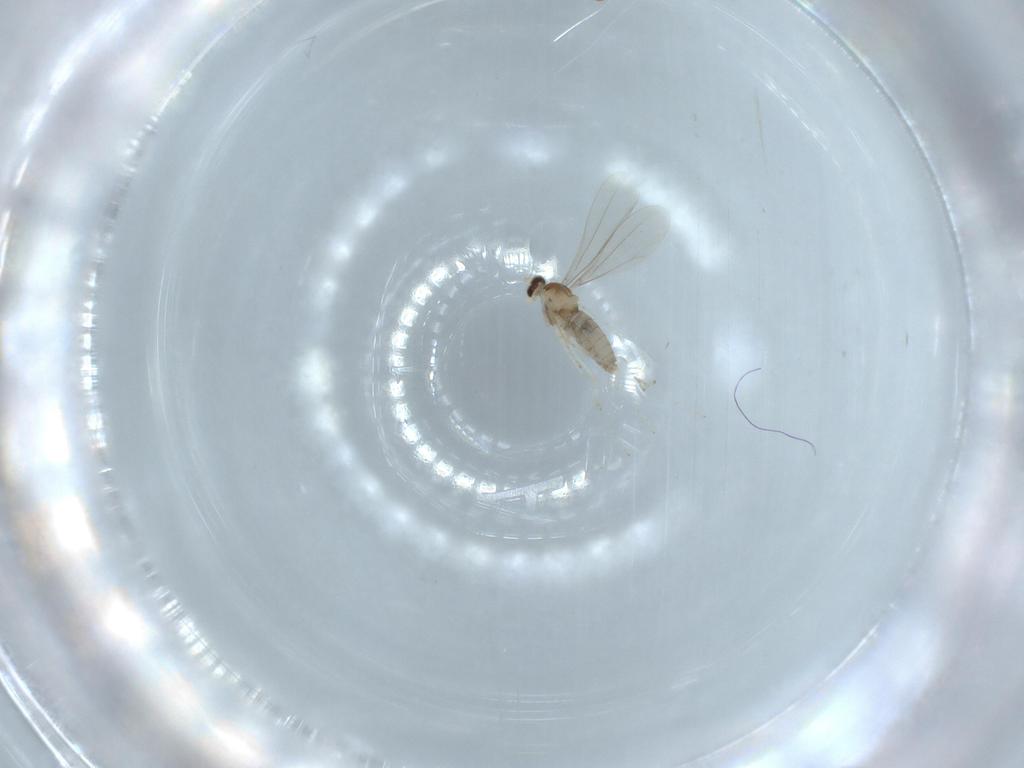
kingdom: Animalia
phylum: Arthropoda
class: Insecta
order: Diptera
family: Cecidomyiidae
